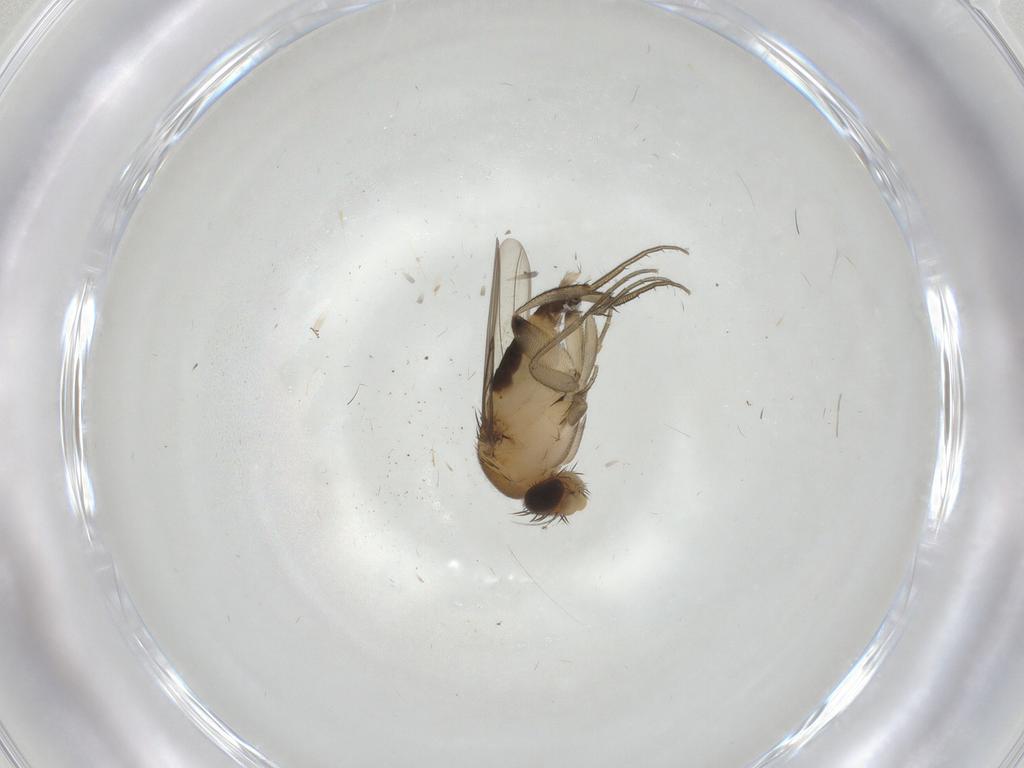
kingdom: Animalia
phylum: Arthropoda
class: Insecta
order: Diptera
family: Phoridae
